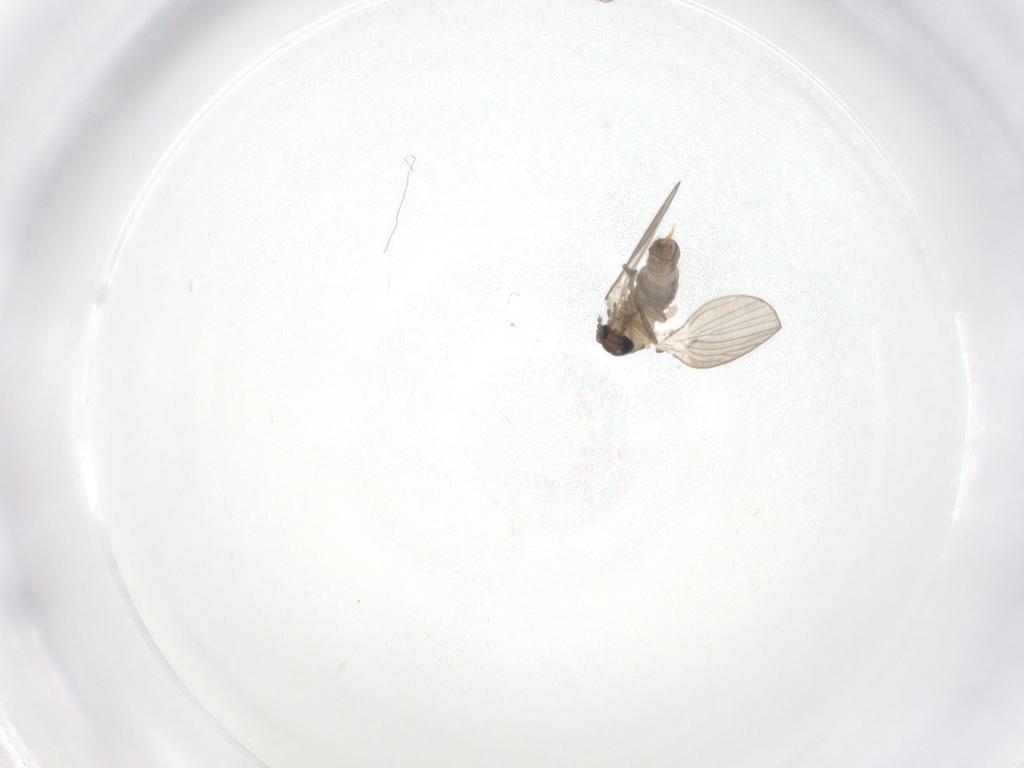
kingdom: Animalia
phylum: Arthropoda
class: Insecta
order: Diptera
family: Psychodidae
